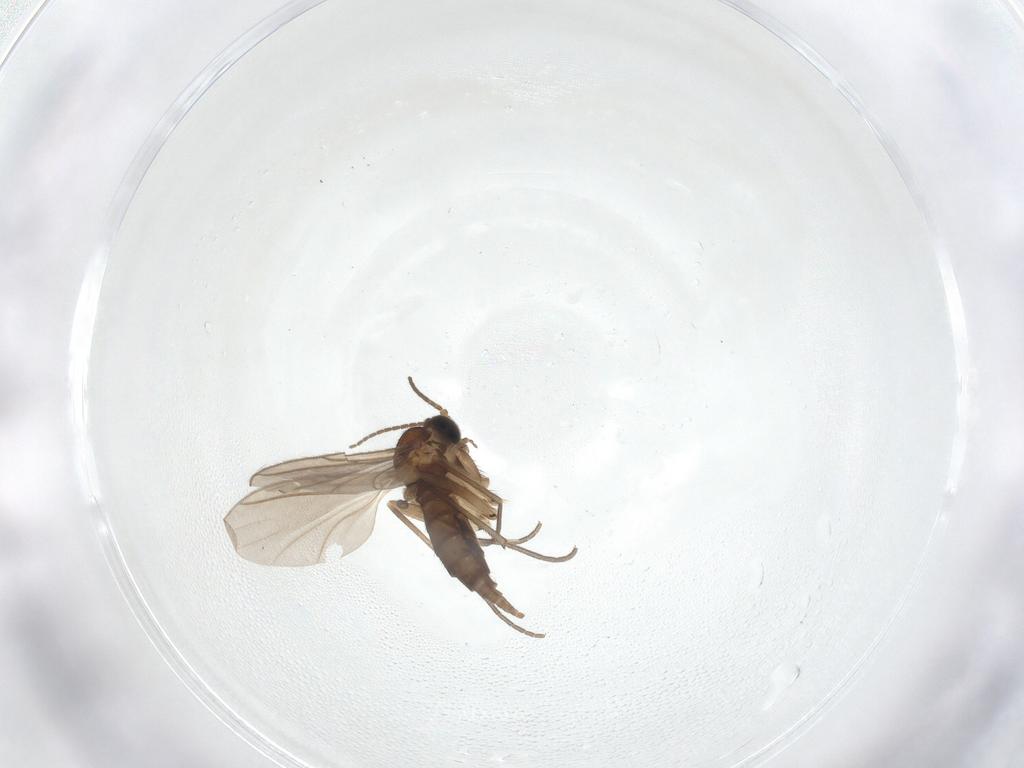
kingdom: Animalia
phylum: Arthropoda
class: Insecta
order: Diptera
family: Sciaridae
